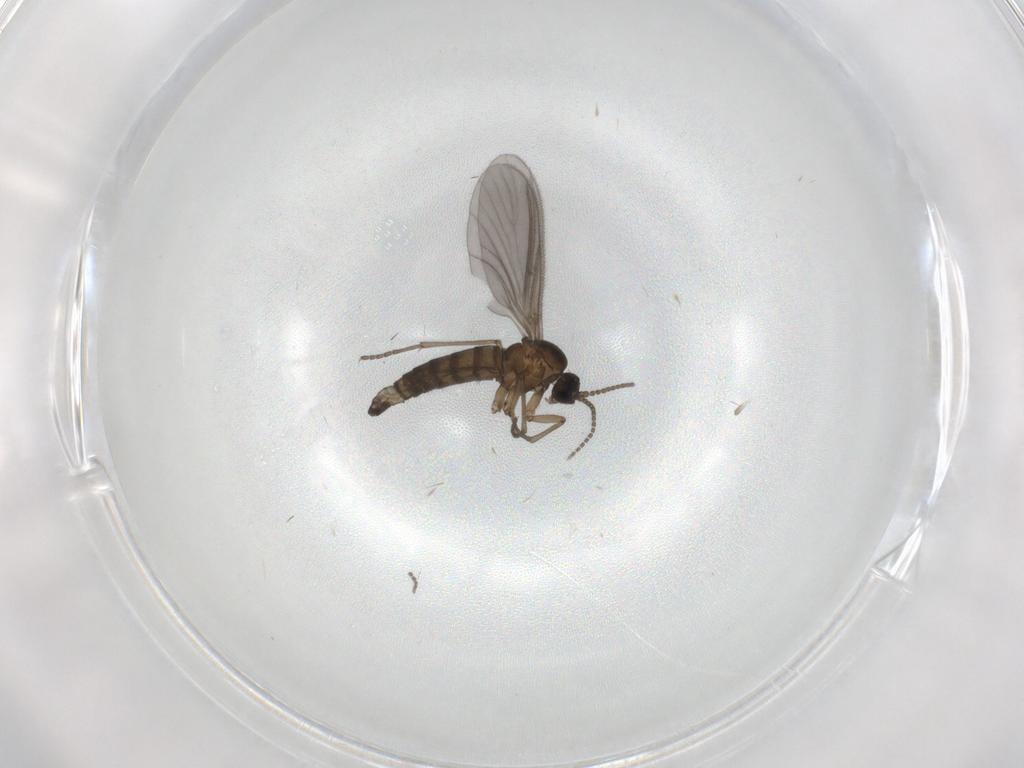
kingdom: Animalia
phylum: Arthropoda
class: Insecta
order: Diptera
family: Sciaridae
